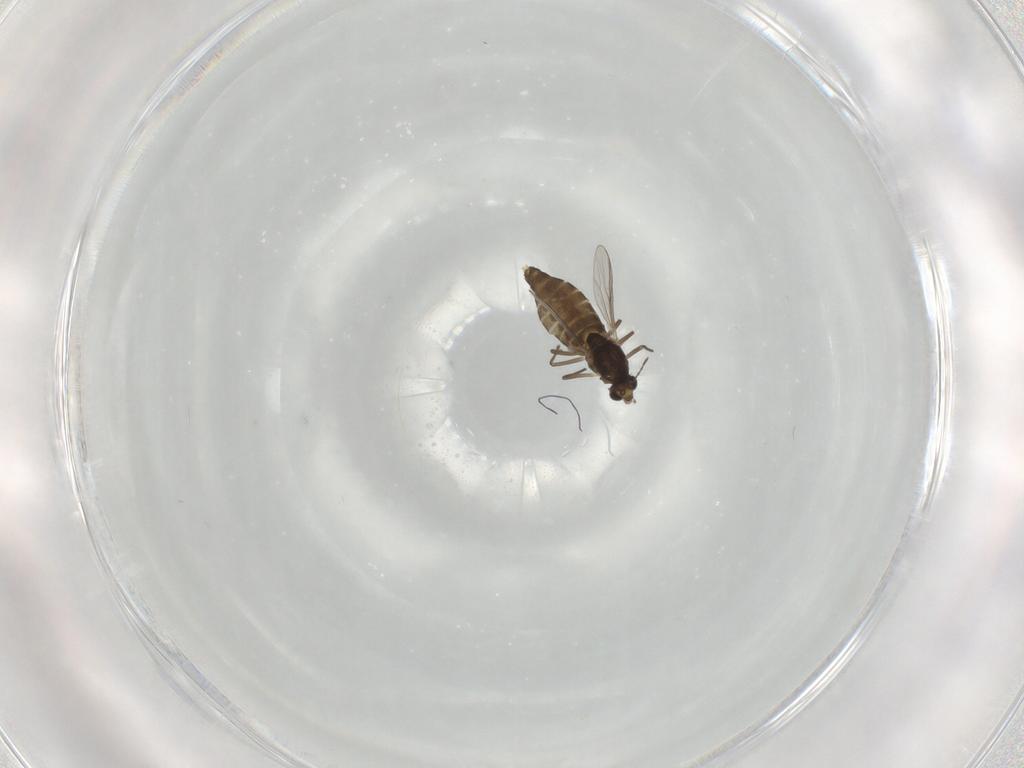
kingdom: Animalia
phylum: Arthropoda
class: Insecta
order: Diptera
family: Chironomidae
